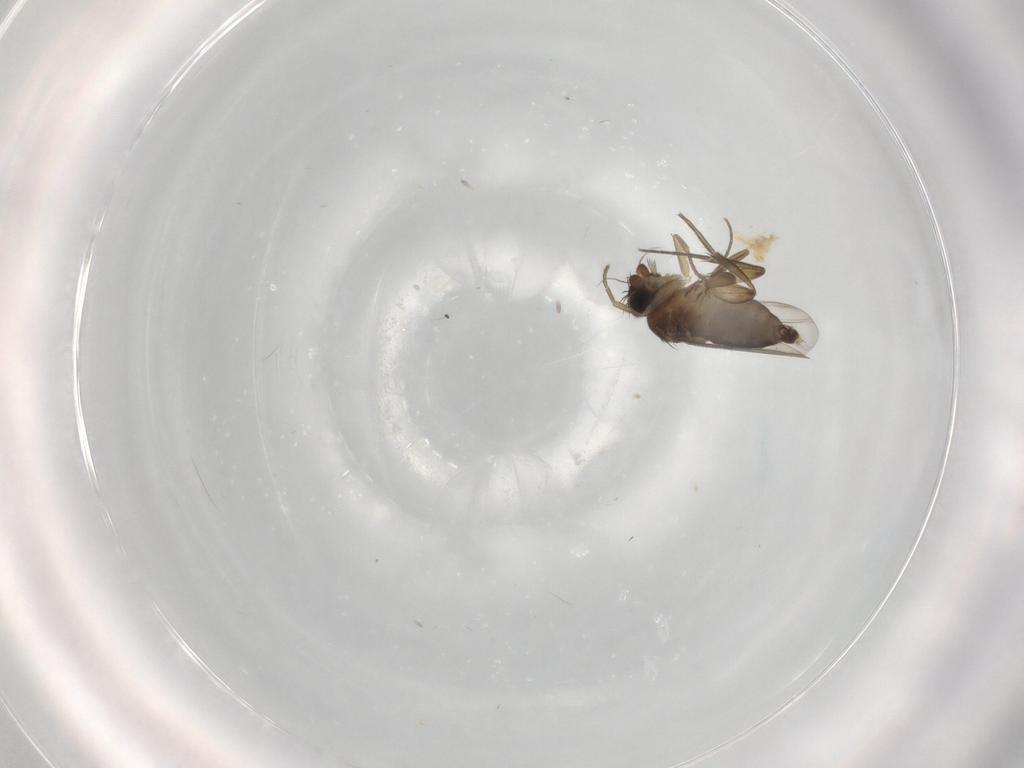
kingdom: Animalia
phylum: Arthropoda
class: Insecta
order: Diptera
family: Phoridae
